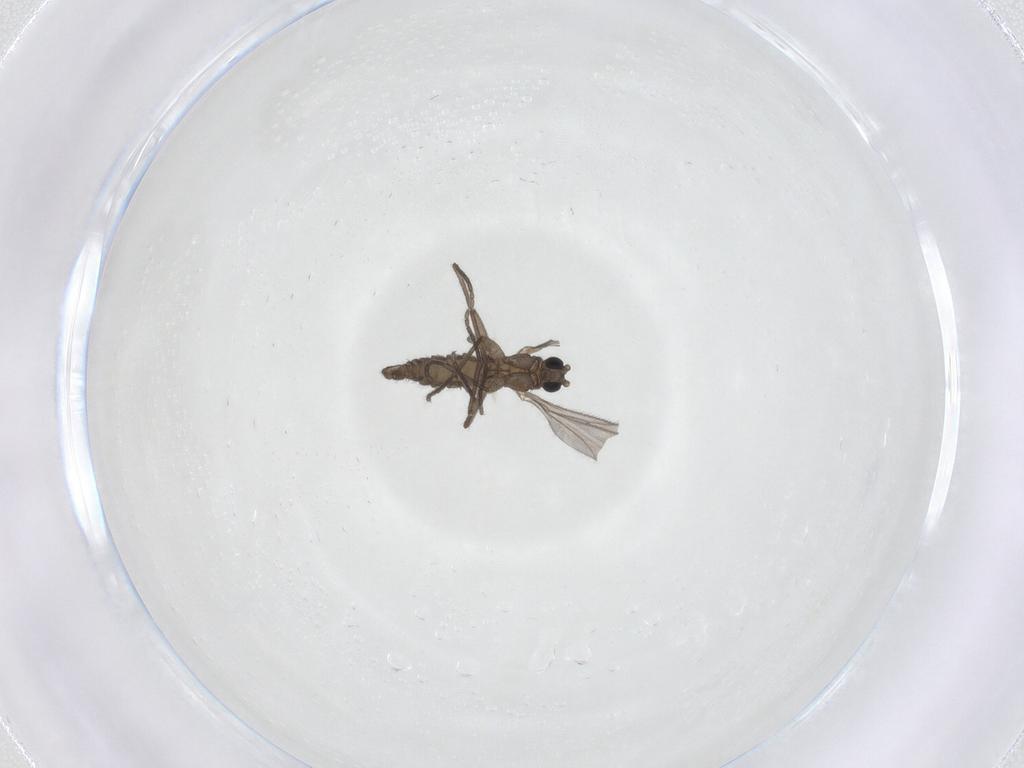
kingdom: Animalia
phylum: Arthropoda
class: Insecta
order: Diptera
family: Sciaridae
